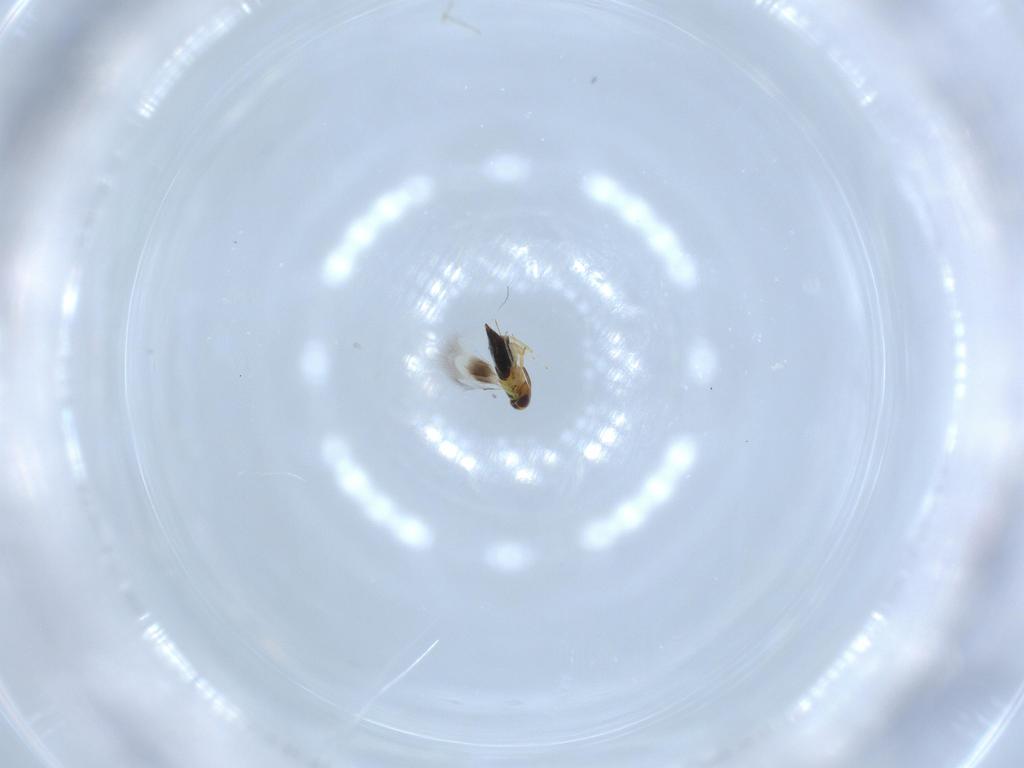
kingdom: Animalia
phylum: Arthropoda
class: Insecta
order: Hymenoptera
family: Signiphoridae
